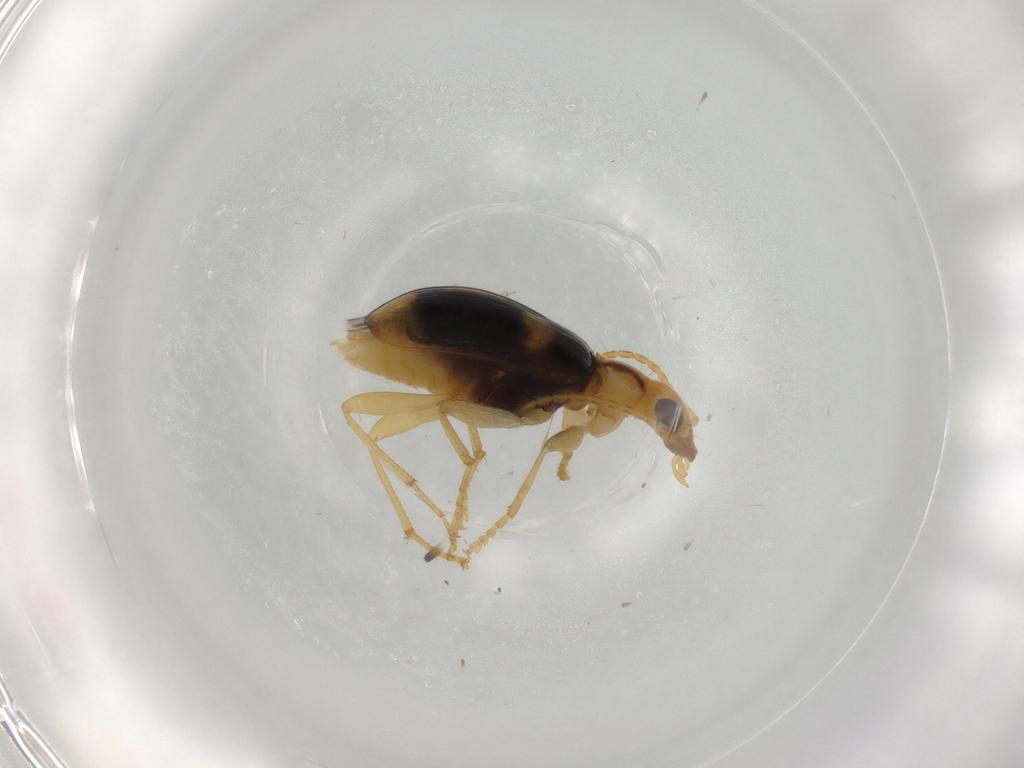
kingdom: Animalia
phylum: Arthropoda
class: Insecta
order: Coleoptera
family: Carabidae
